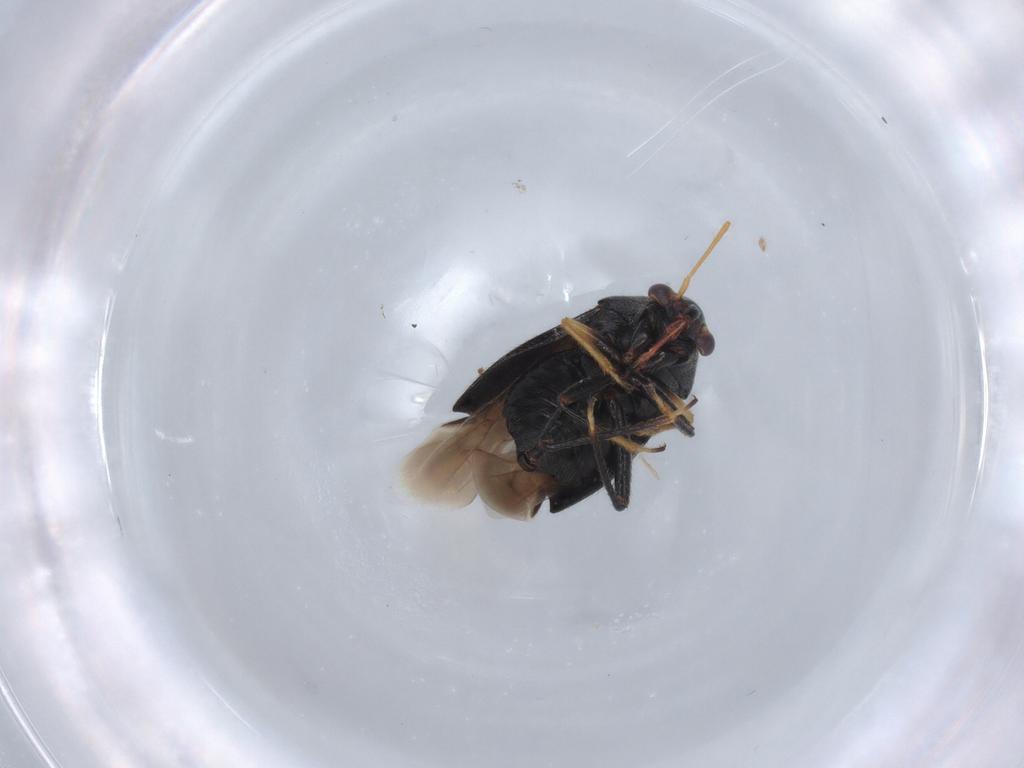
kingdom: Animalia
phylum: Arthropoda
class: Insecta
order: Hemiptera
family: Miridae
